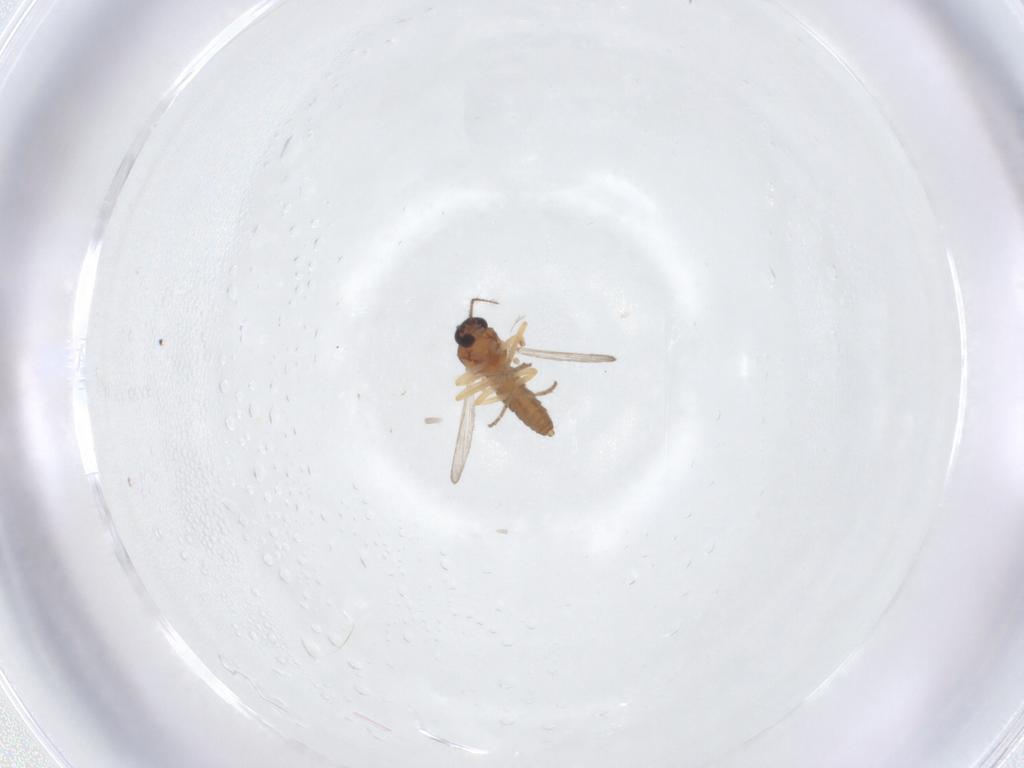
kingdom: Animalia
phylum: Arthropoda
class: Insecta
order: Diptera
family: Ceratopogonidae
